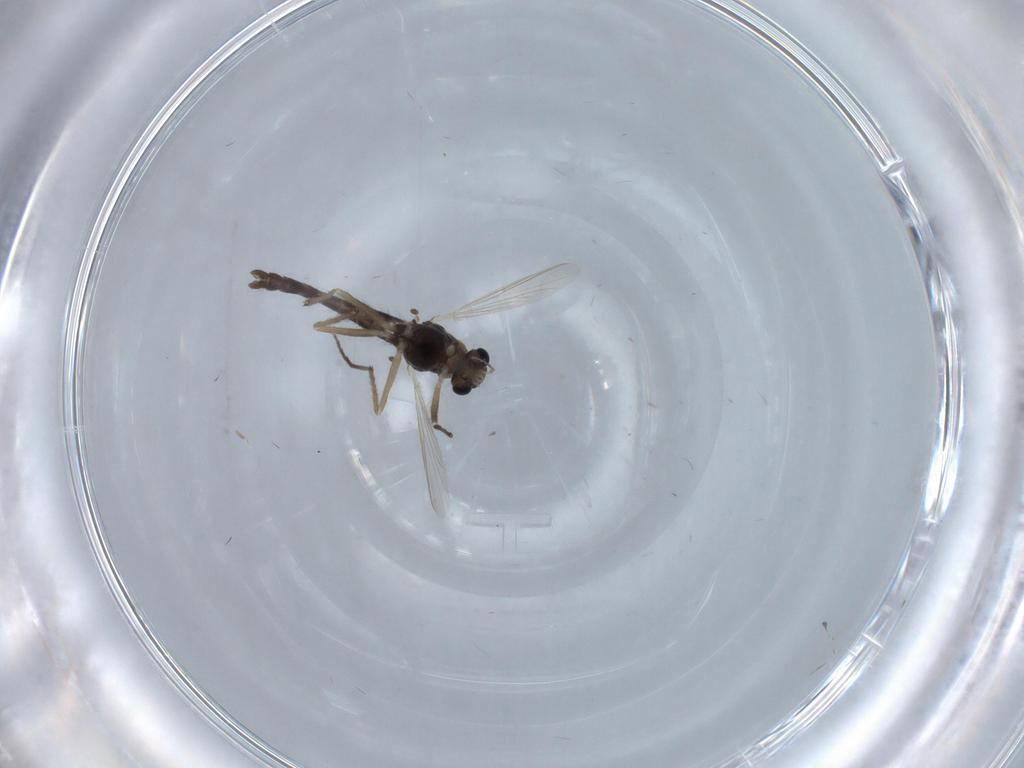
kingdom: Animalia
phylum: Arthropoda
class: Insecta
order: Diptera
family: Chironomidae
